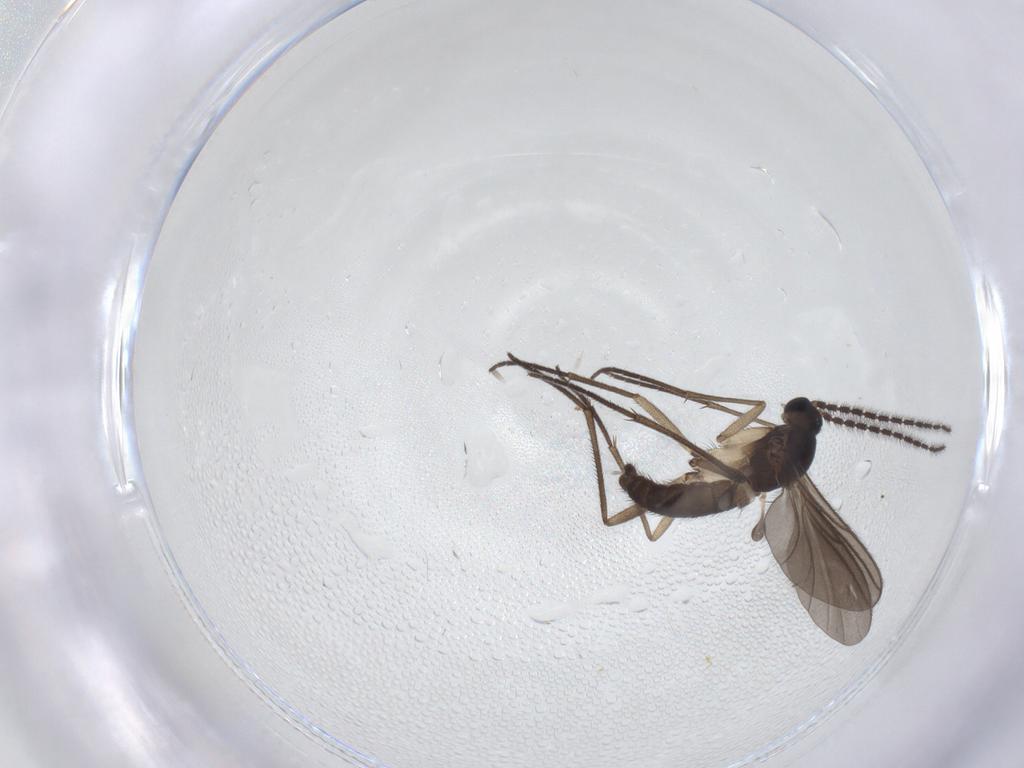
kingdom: Animalia
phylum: Arthropoda
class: Insecta
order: Diptera
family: Sciaridae
